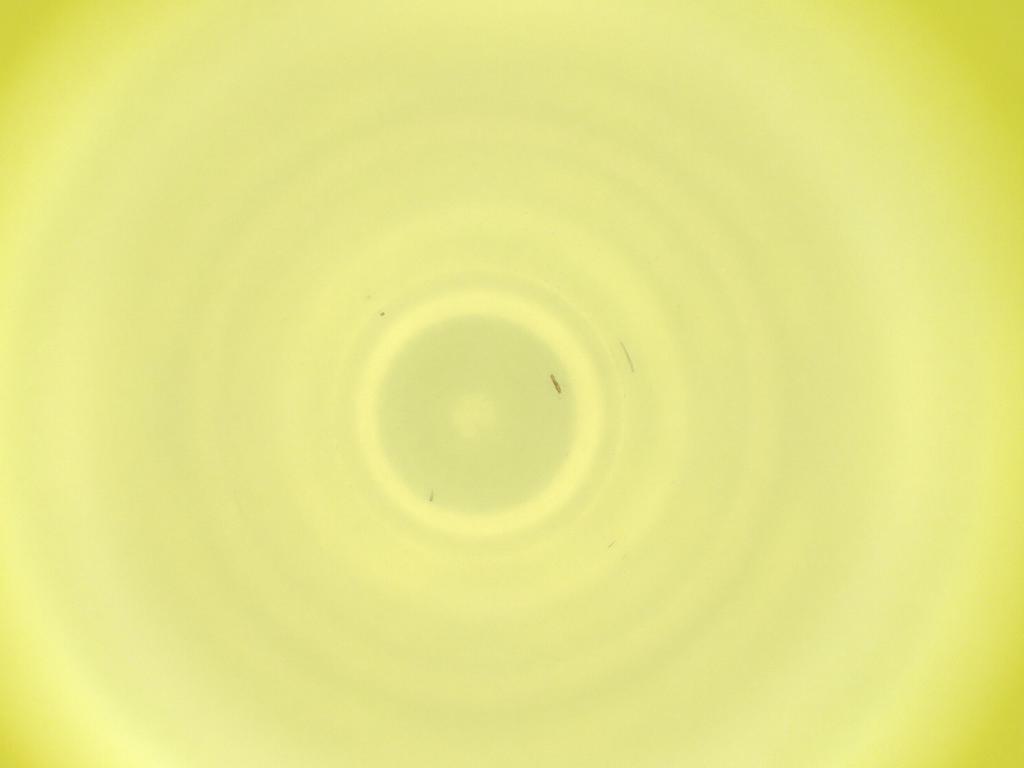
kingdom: Animalia
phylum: Arthropoda
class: Insecta
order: Diptera
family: Cecidomyiidae
